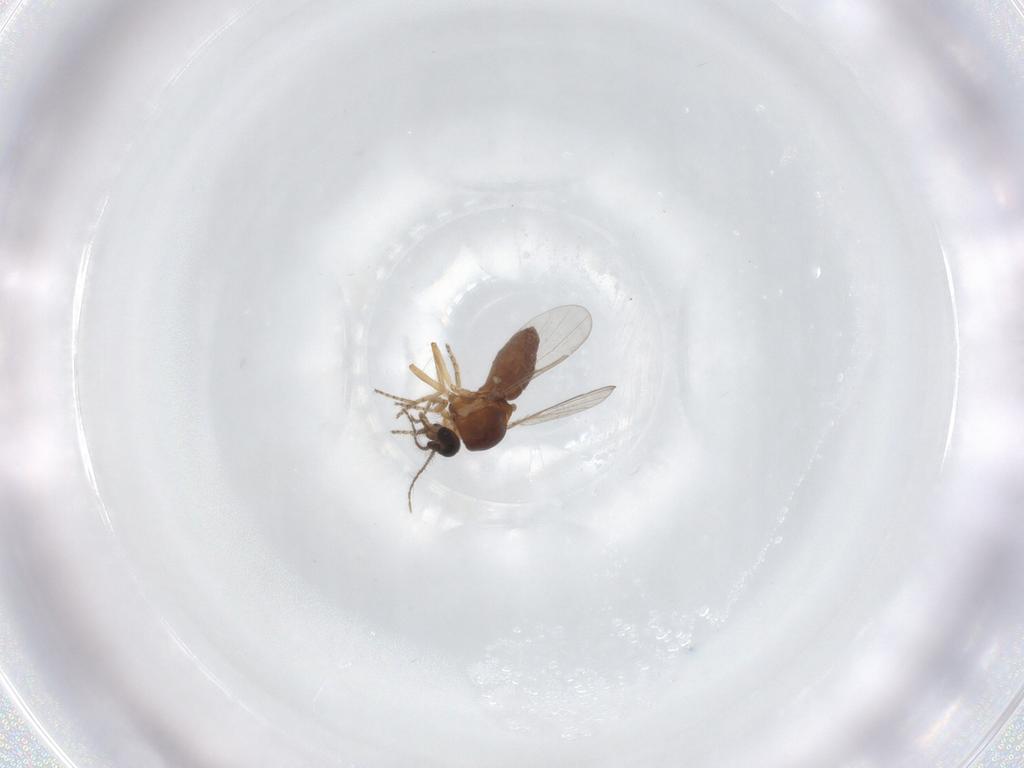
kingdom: Animalia
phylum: Arthropoda
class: Insecta
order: Diptera
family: Ceratopogonidae
